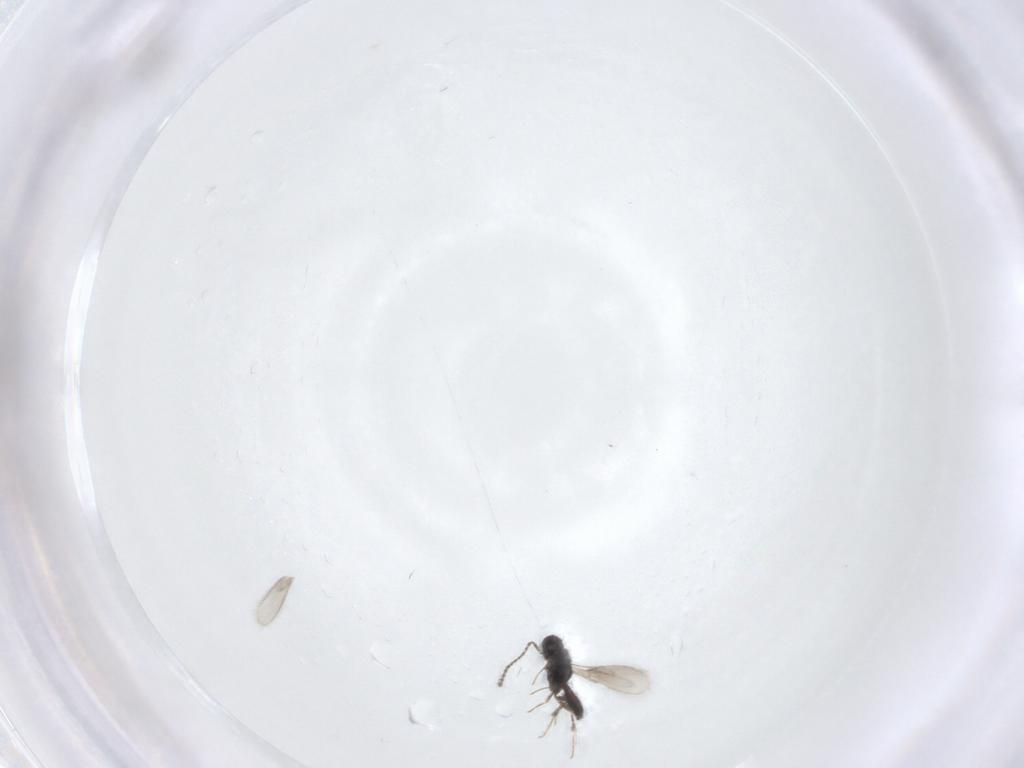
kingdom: Animalia
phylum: Arthropoda
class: Insecta
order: Hymenoptera
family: Scelionidae
